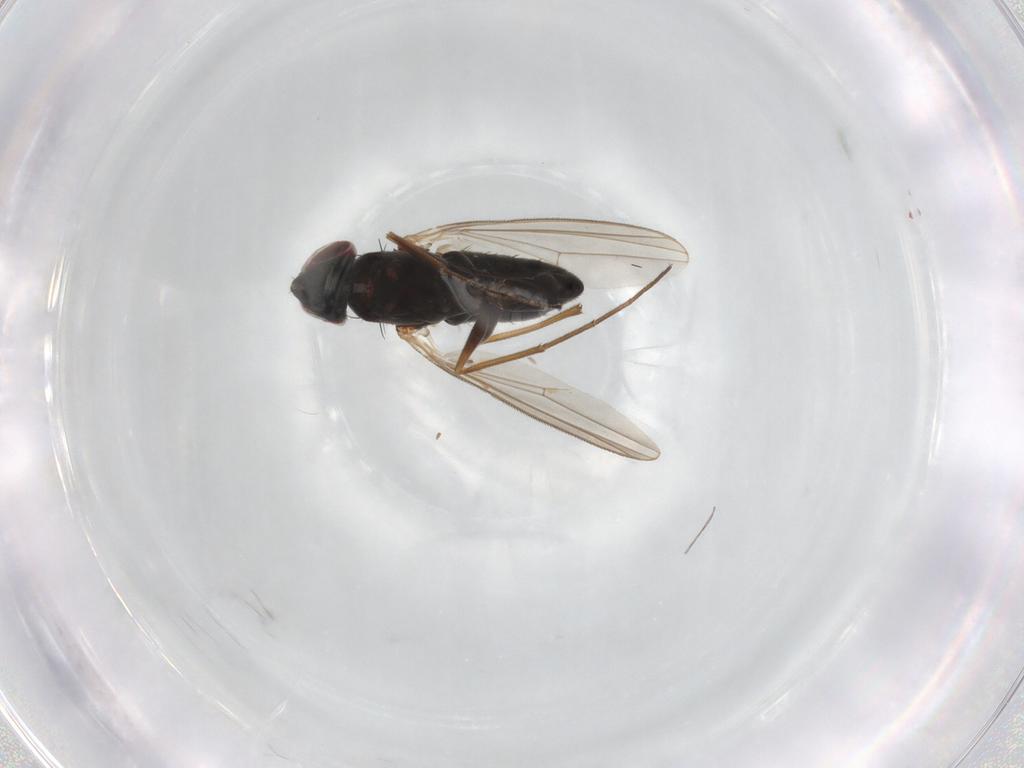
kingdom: Animalia
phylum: Arthropoda
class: Insecta
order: Diptera
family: Dolichopodidae
